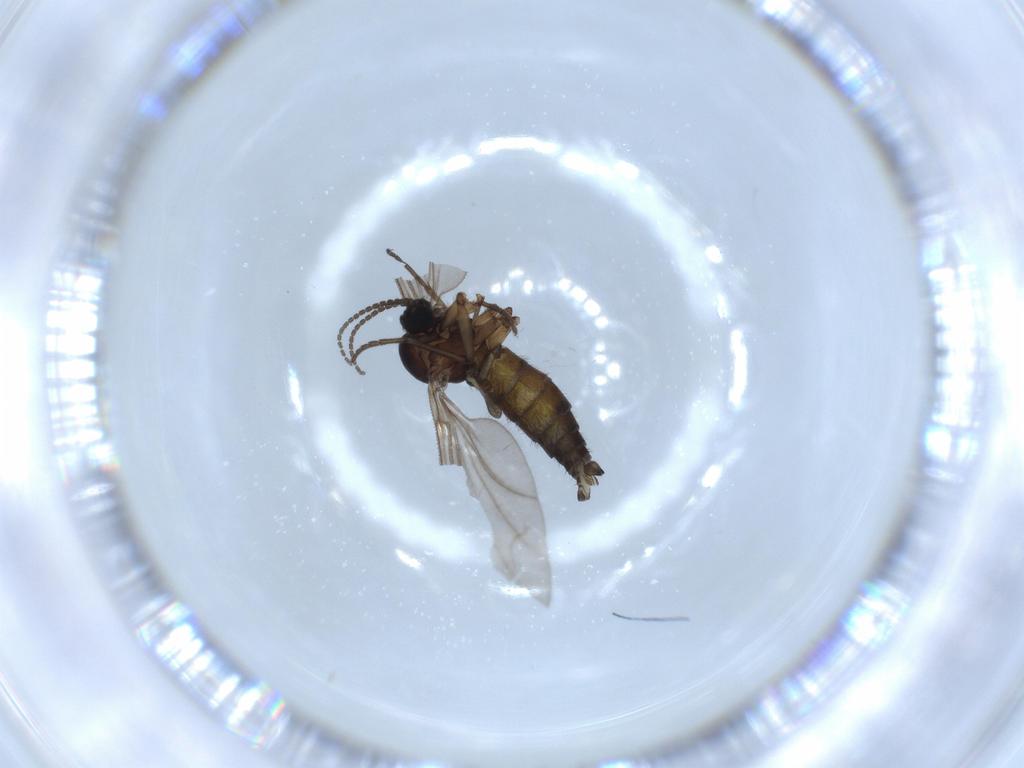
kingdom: Animalia
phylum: Arthropoda
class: Insecta
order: Diptera
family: Sciaridae
